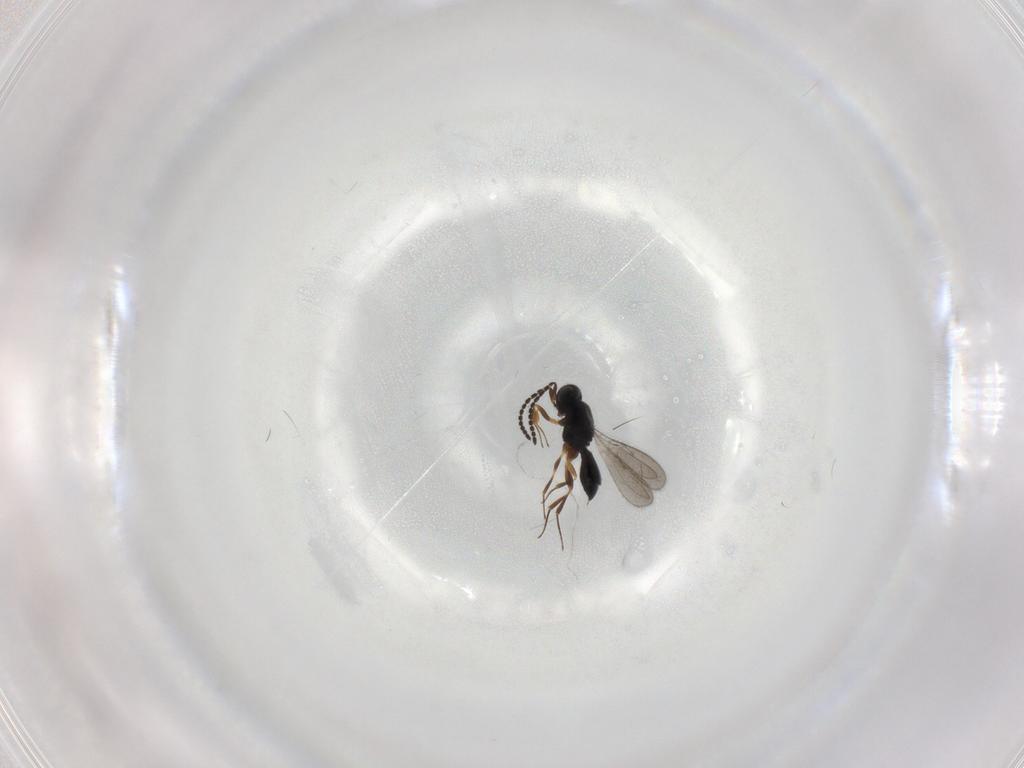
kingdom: Animalia
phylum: Arthropoda
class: Insecta
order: Hymenoptera
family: Scelionidae
